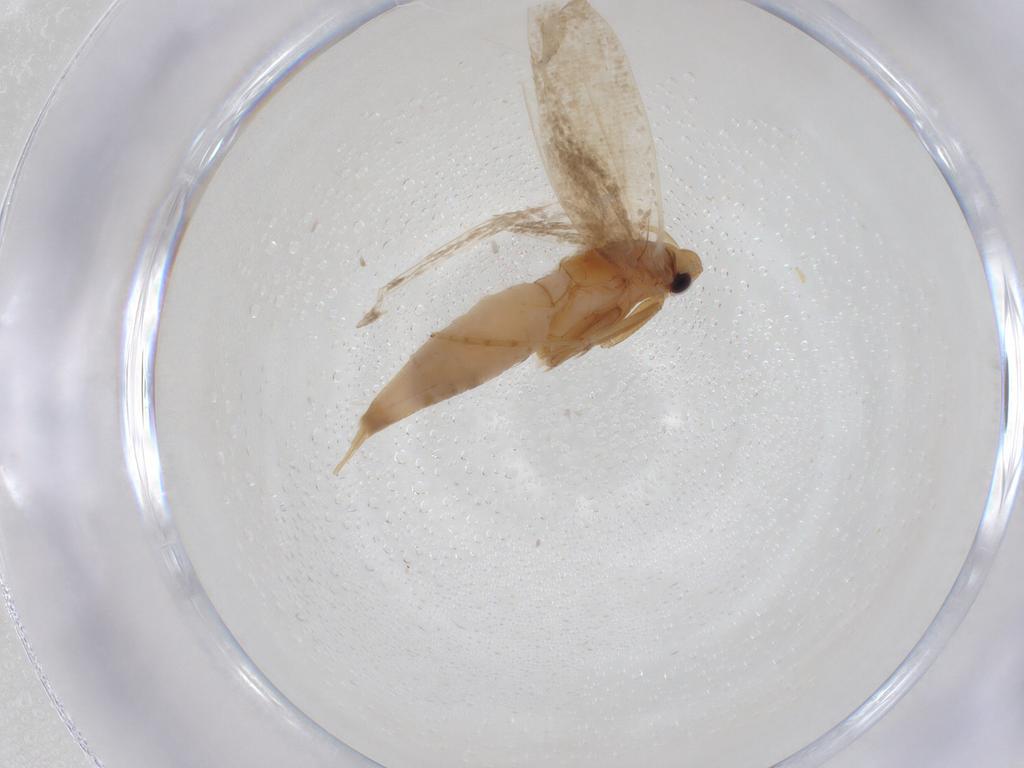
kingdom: Animalia
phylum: Arthropoda
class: Insecta
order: Lepidoptera
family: Tineidae
